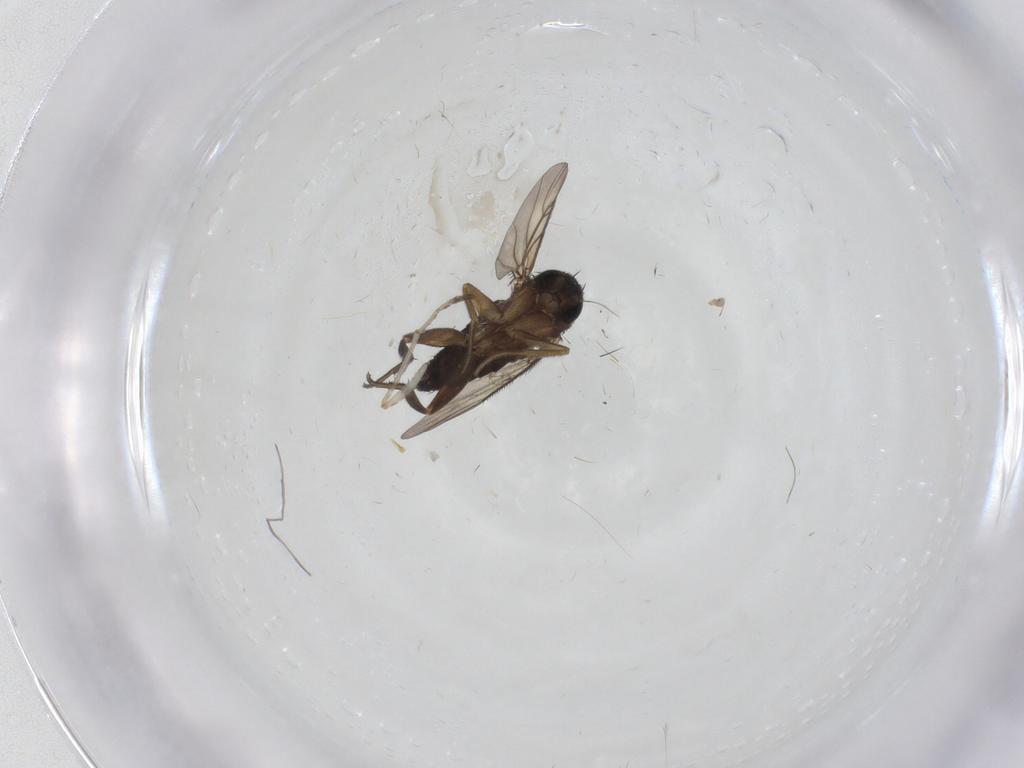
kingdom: Animalia
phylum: Arthropoda
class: Insecta
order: Diptera
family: Phoridae
